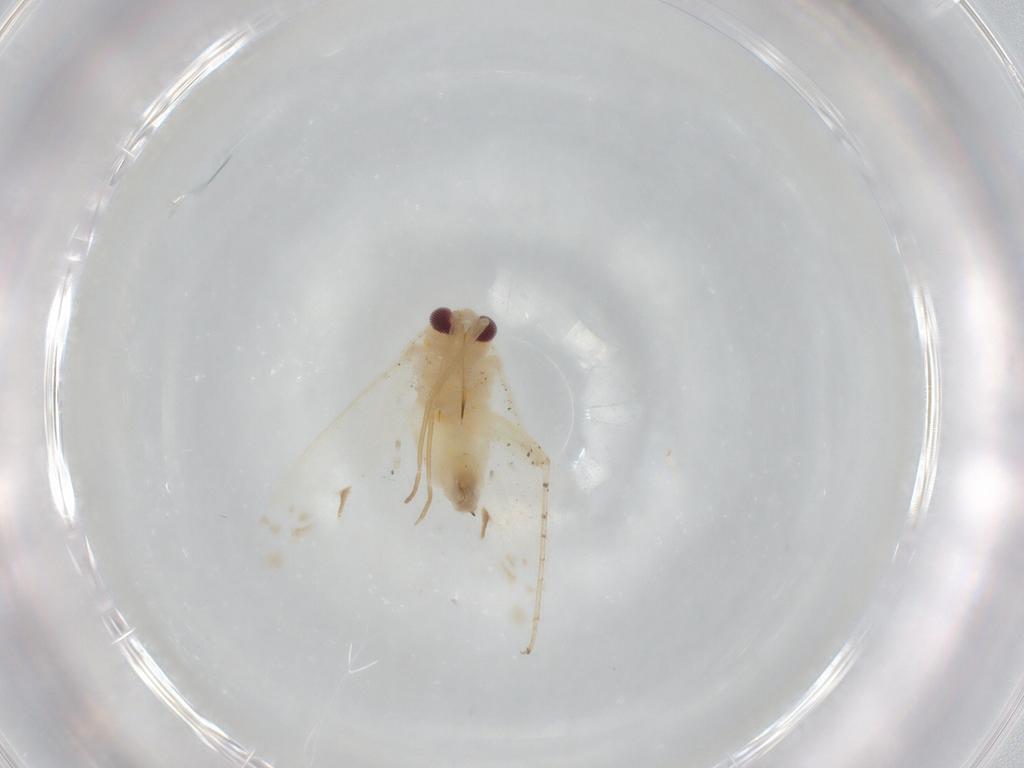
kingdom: Animalia
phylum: Arthropoda
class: Insecta
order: Hemiptera
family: Miridae
